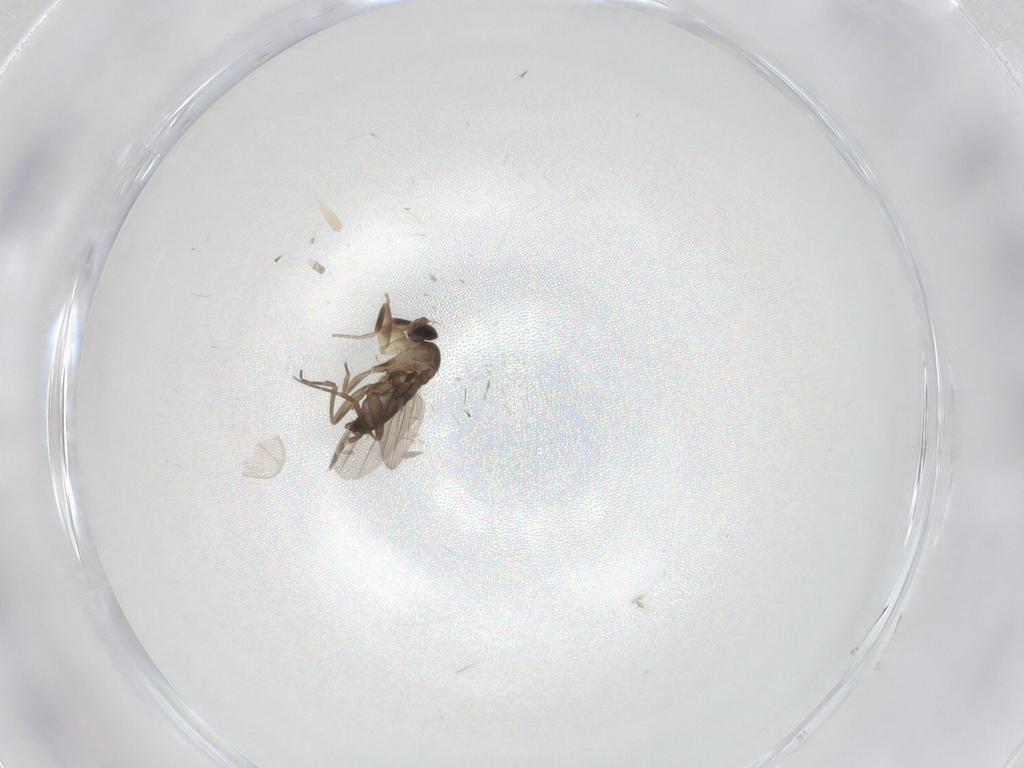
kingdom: Animalia
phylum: Arthropoda
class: Insecta
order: Diptera
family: Phoridae
